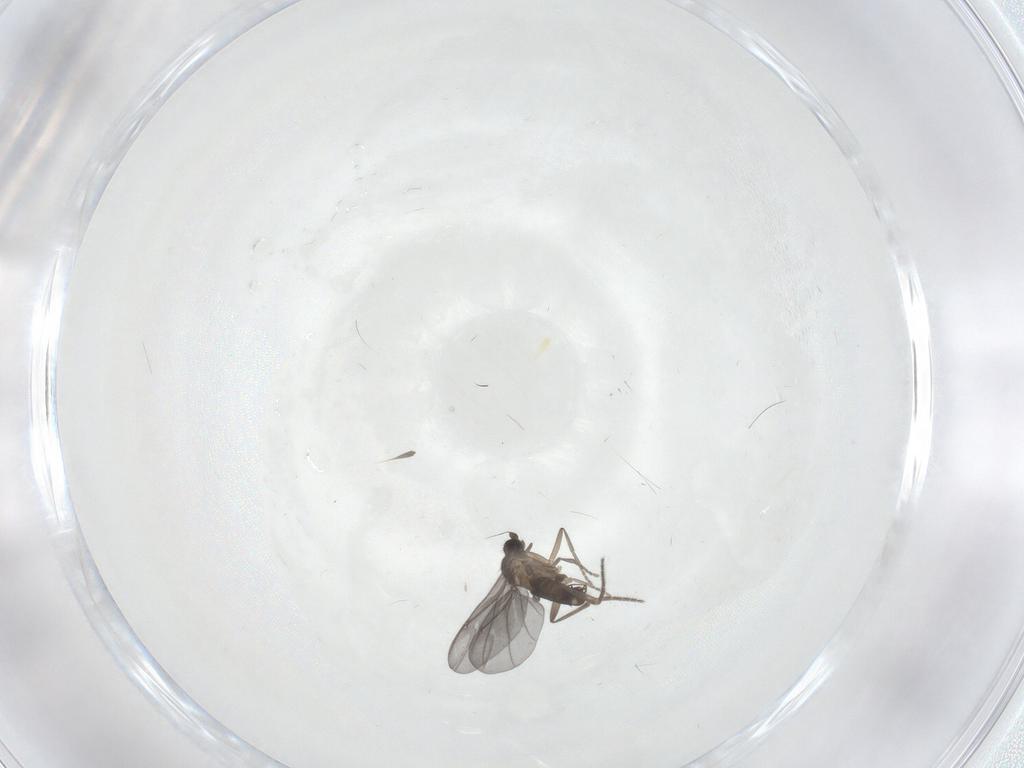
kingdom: Animalia
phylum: Arthropoda
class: Insecta
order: Diptera
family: Phoridae
